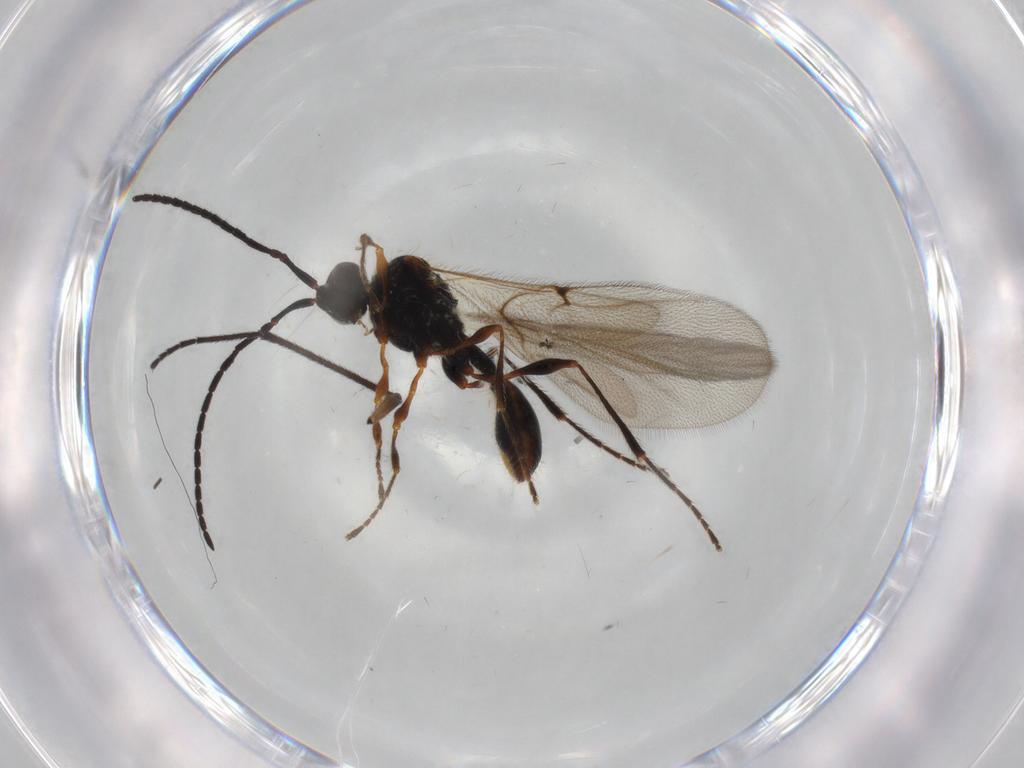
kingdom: Animalia
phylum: Arthropoda
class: Insecta
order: Hymenoptera
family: Diapriidae
